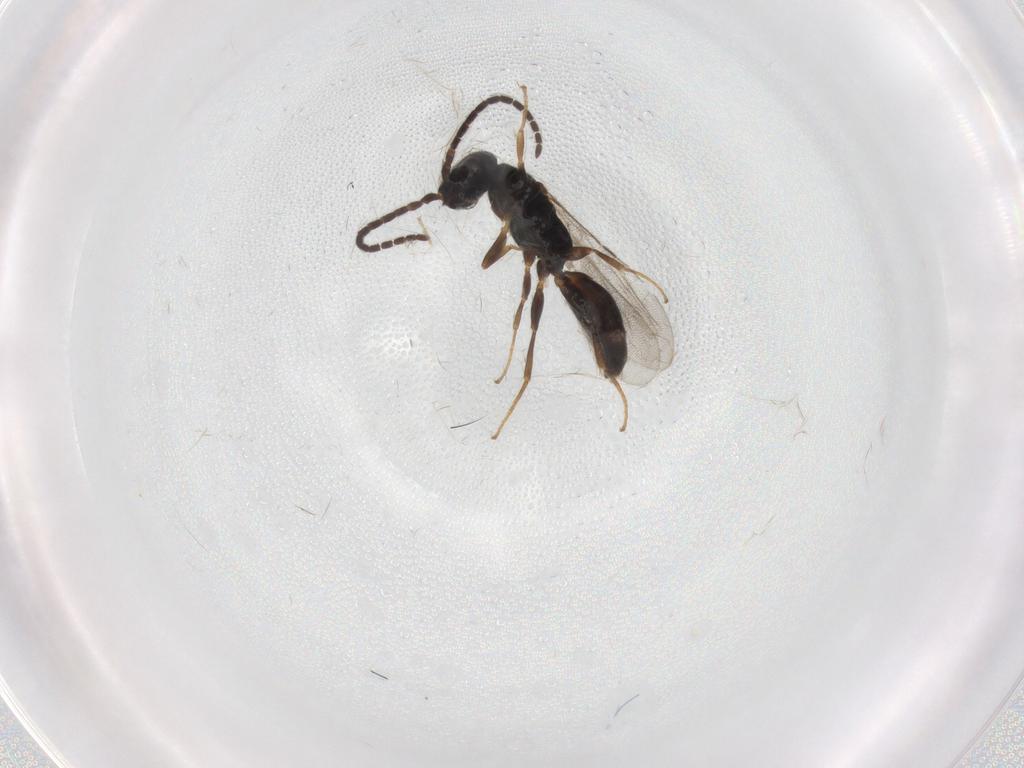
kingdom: Animalia
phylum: Arthropoda
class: Insecta
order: Hymenoptera
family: Bethylidae
